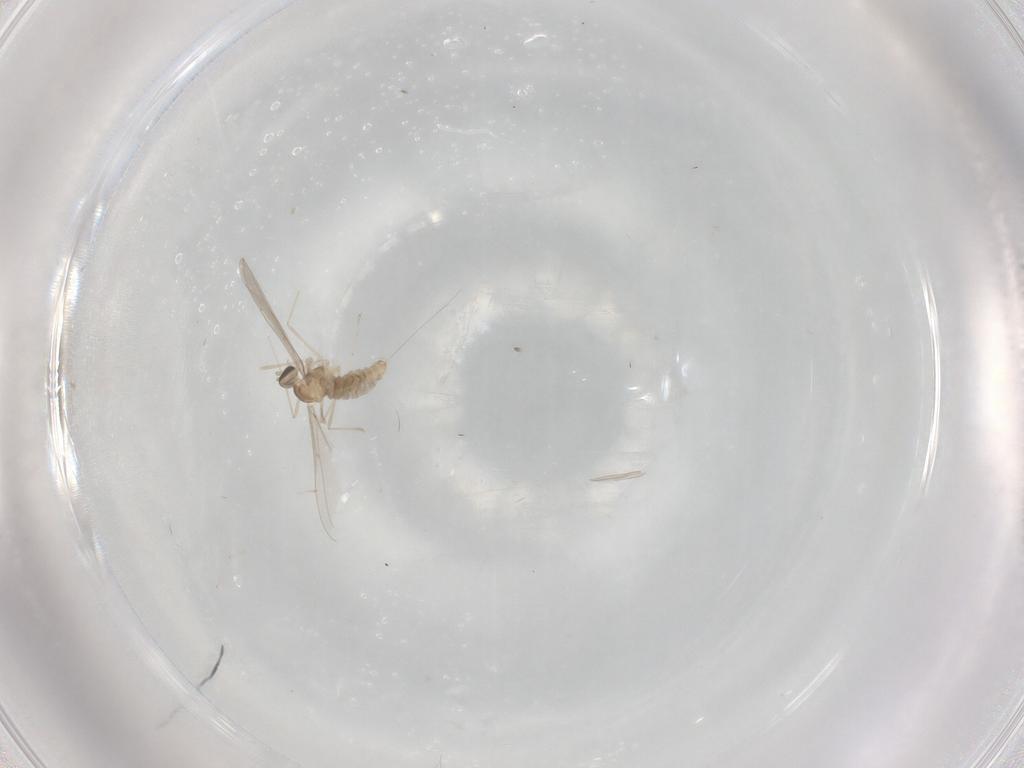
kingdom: Animalia
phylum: Arthropoda
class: Insecta
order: Diptera
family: Cecidomyiidae
